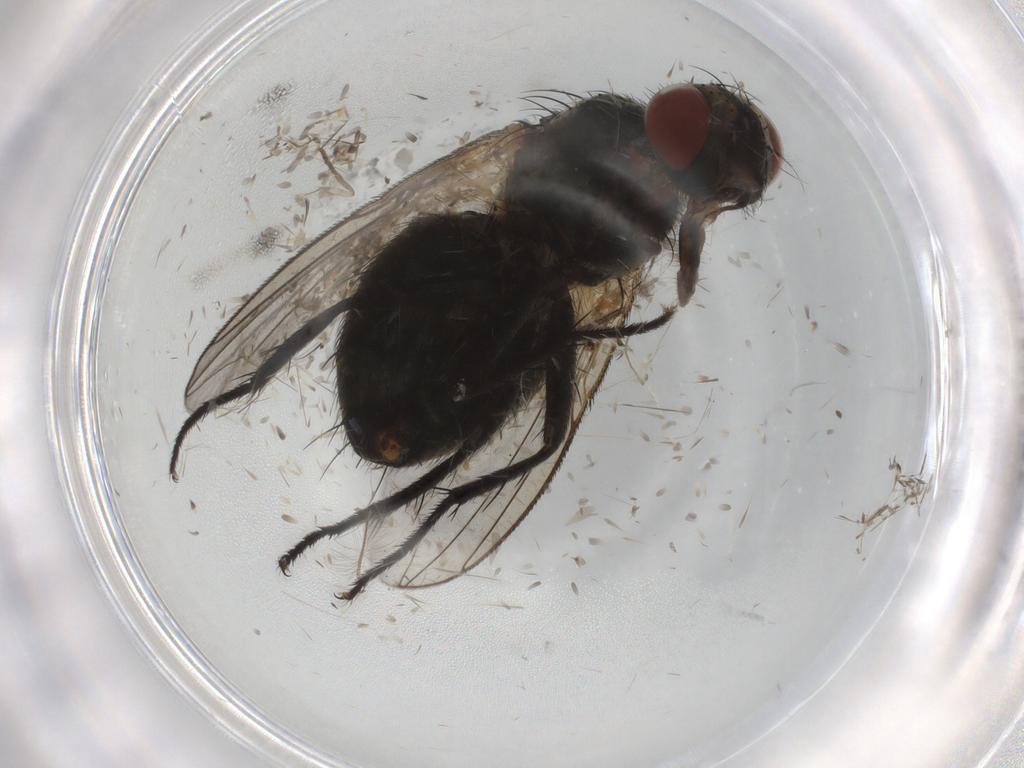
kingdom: Animalia
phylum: Arthropoda
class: Insecta
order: Diptera
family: Sarcophagidae
